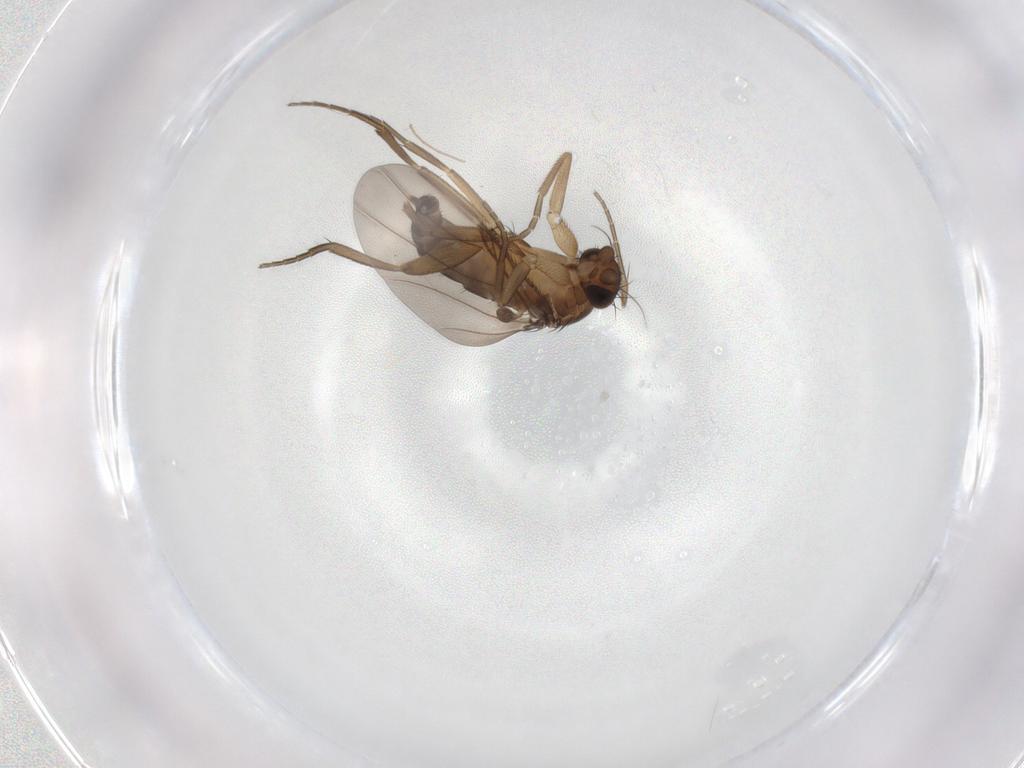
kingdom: Animalia
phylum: Arthropoda
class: Insecta
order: Diptera
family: Phoridae
